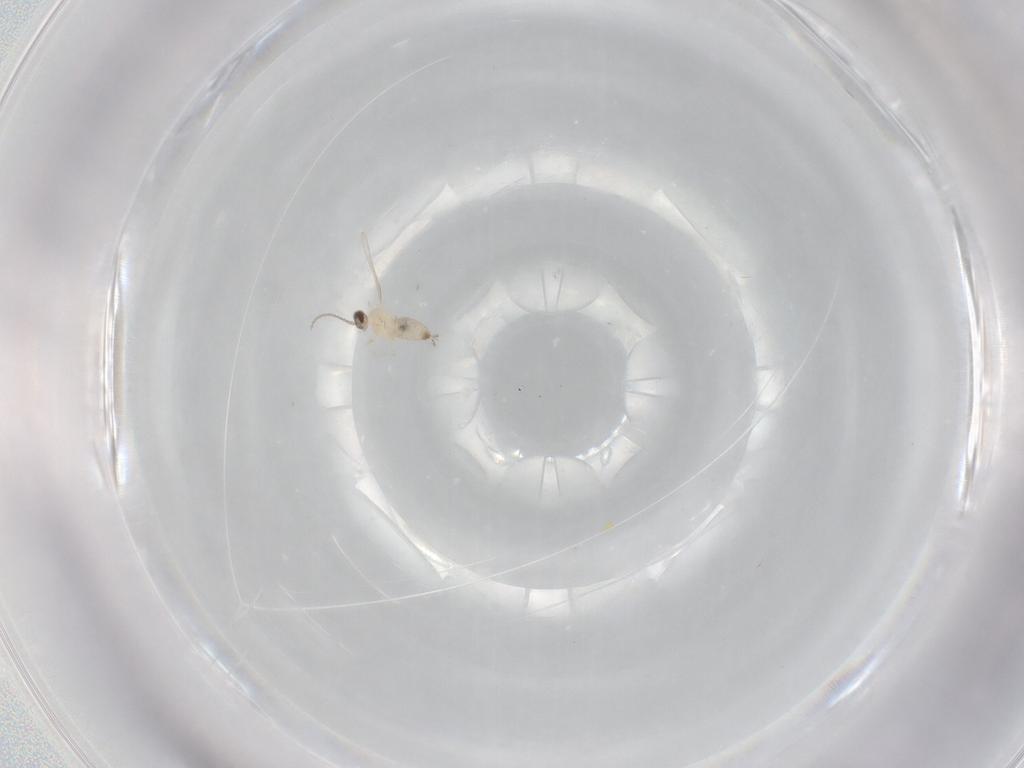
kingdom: Animalia
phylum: Arthropoda
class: Insecta
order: Diptera
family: Cecidomyiidae
